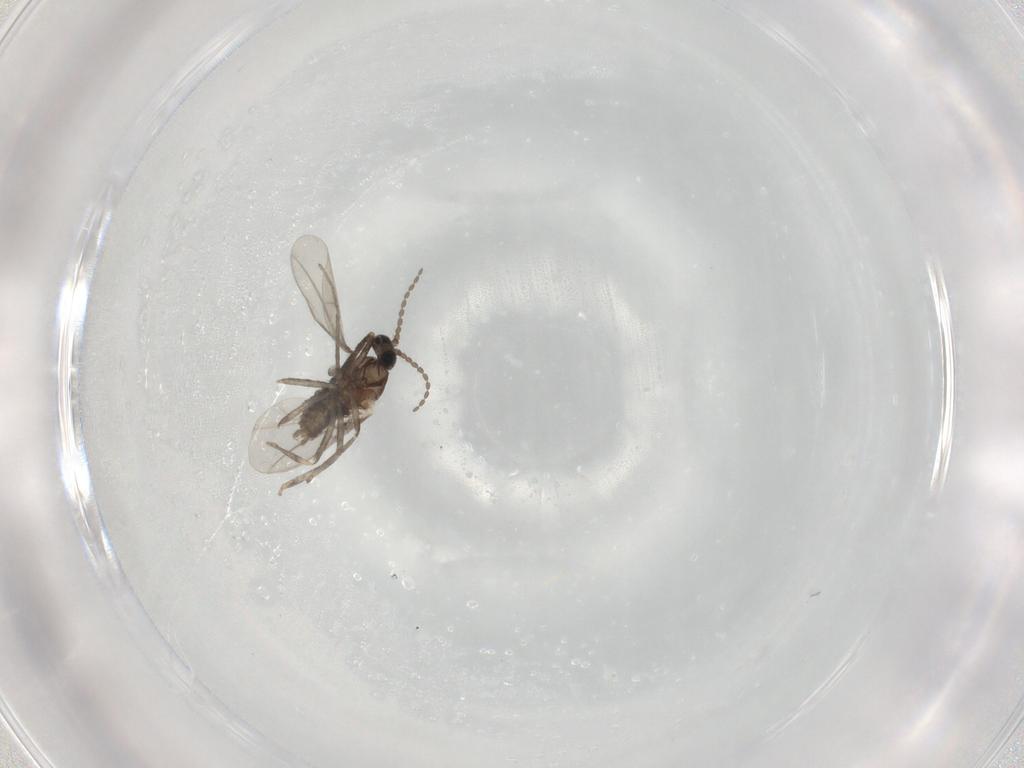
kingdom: Animalia
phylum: Arthropoda
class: Insecta
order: Diptera
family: Cecidomyiidae
